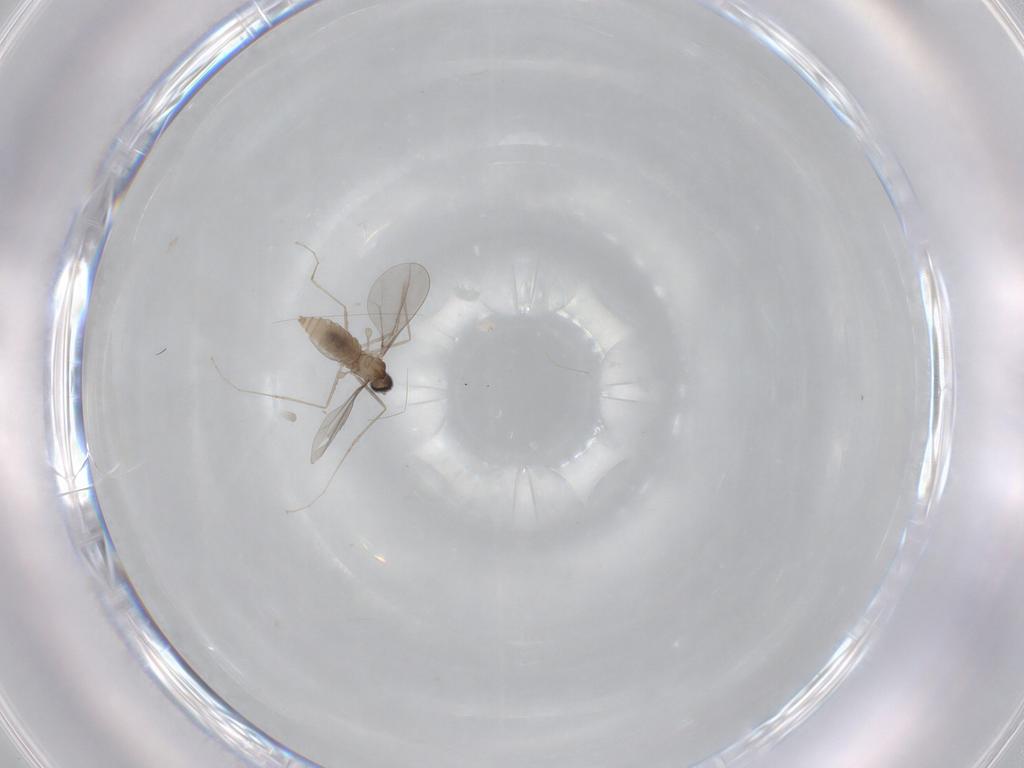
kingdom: Animalia
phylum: Arthropoda
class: Insecta
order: Diptera
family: Cecidomyiidae
